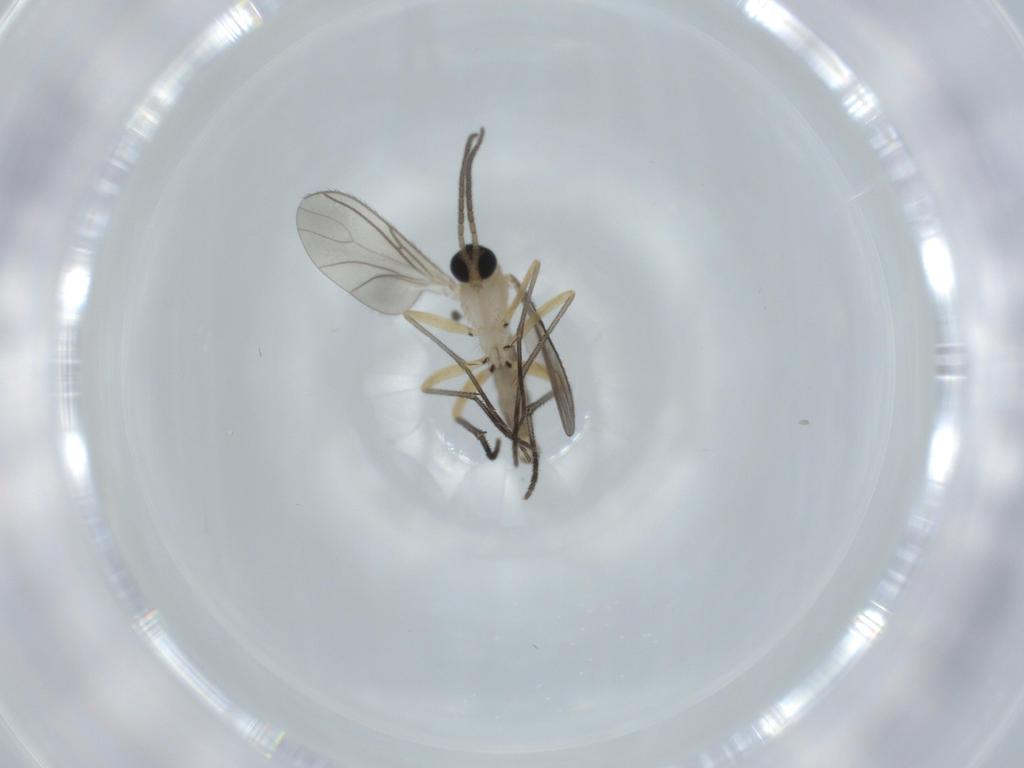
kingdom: Animalia
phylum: Arthropoda
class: Insecta
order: Diptera
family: Sciaridae
